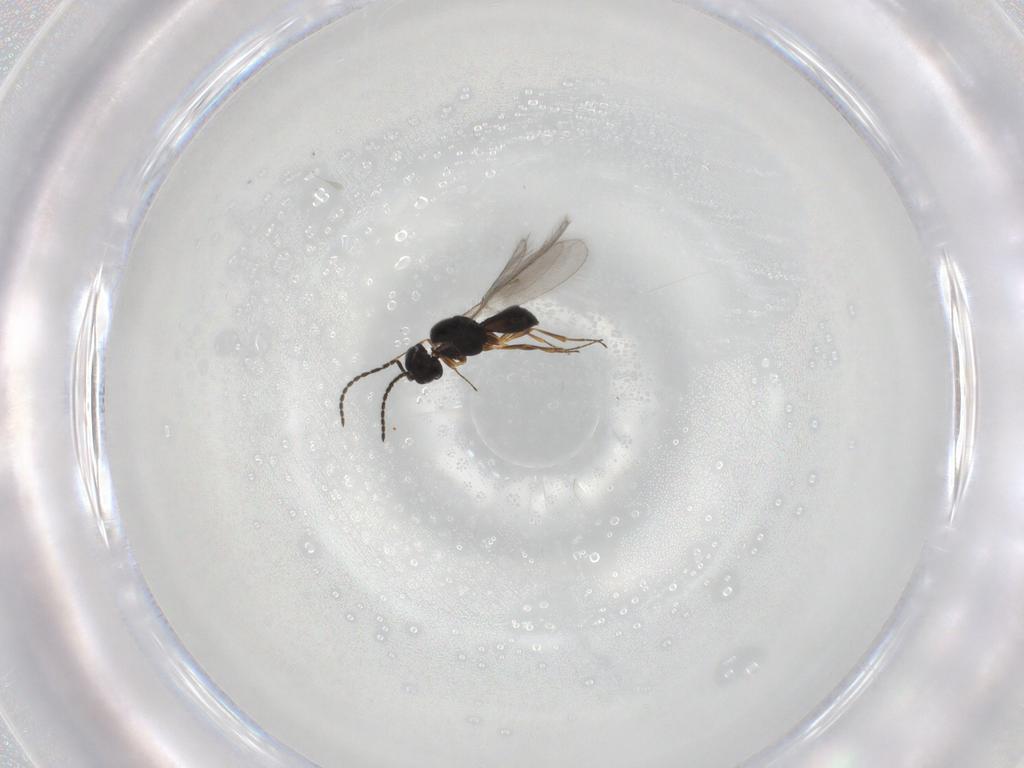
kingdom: Animalia
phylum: Arthropoda
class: Insecta
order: Hymenoptera
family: Scelionidae
